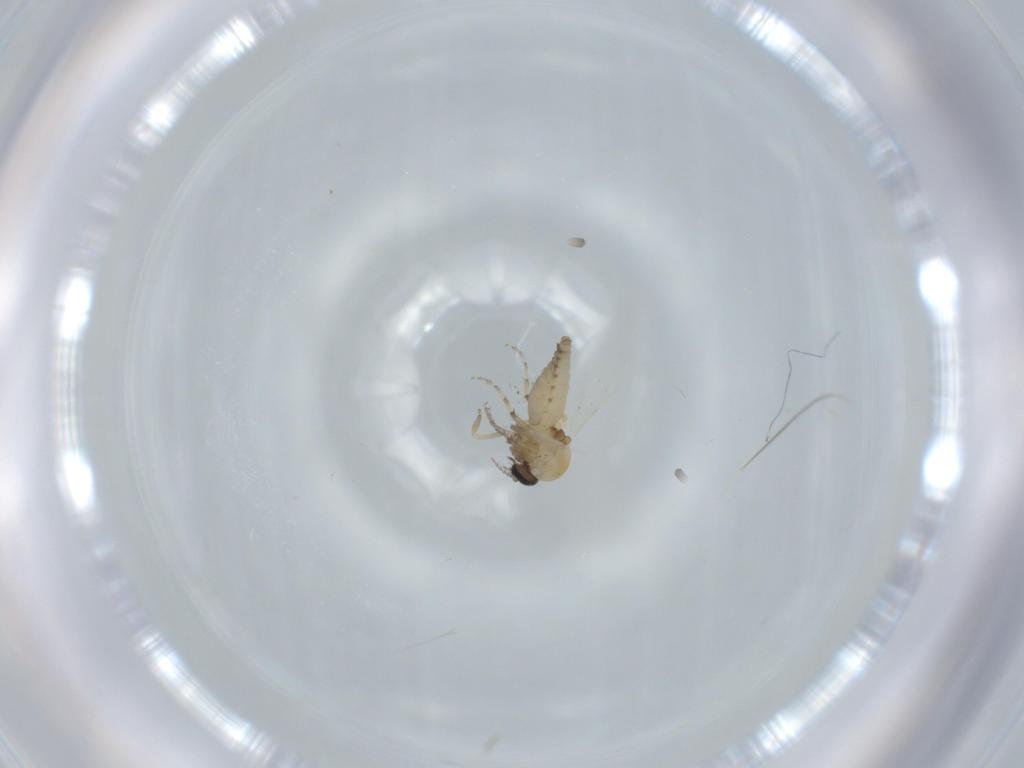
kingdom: Animalia
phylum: Arthropoda
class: Insecta
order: Diptera
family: Ceratopogonidae
